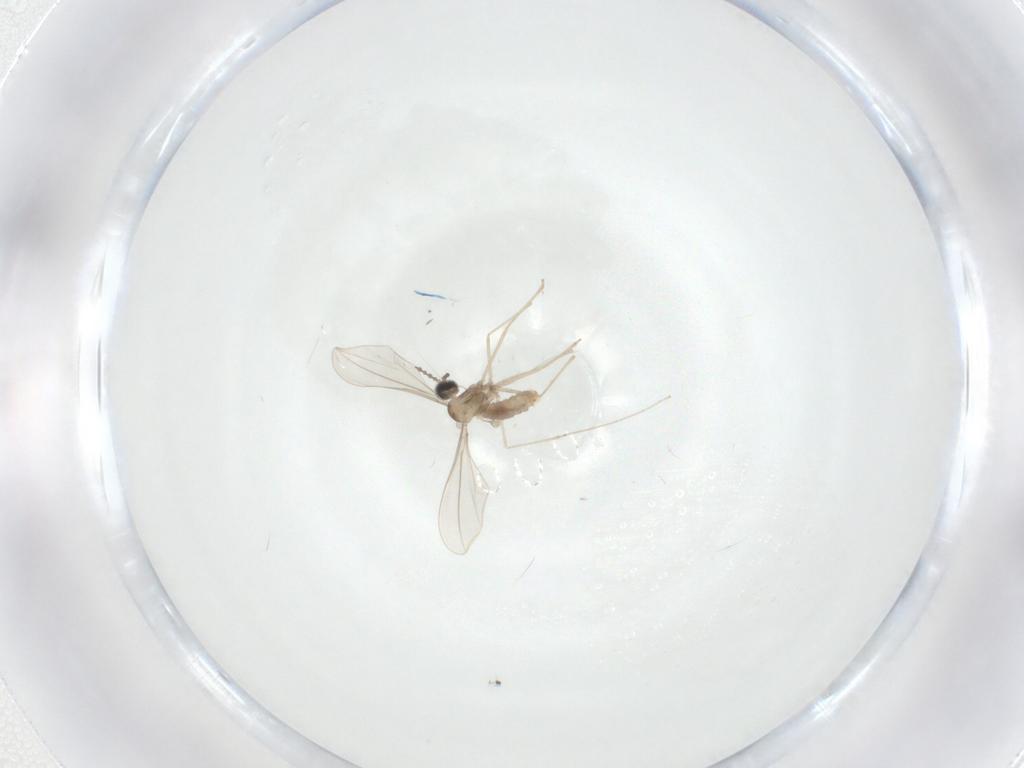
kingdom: Animalia
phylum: Arthropoda
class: Insecta
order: Diptera
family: Cecidomyiidae
